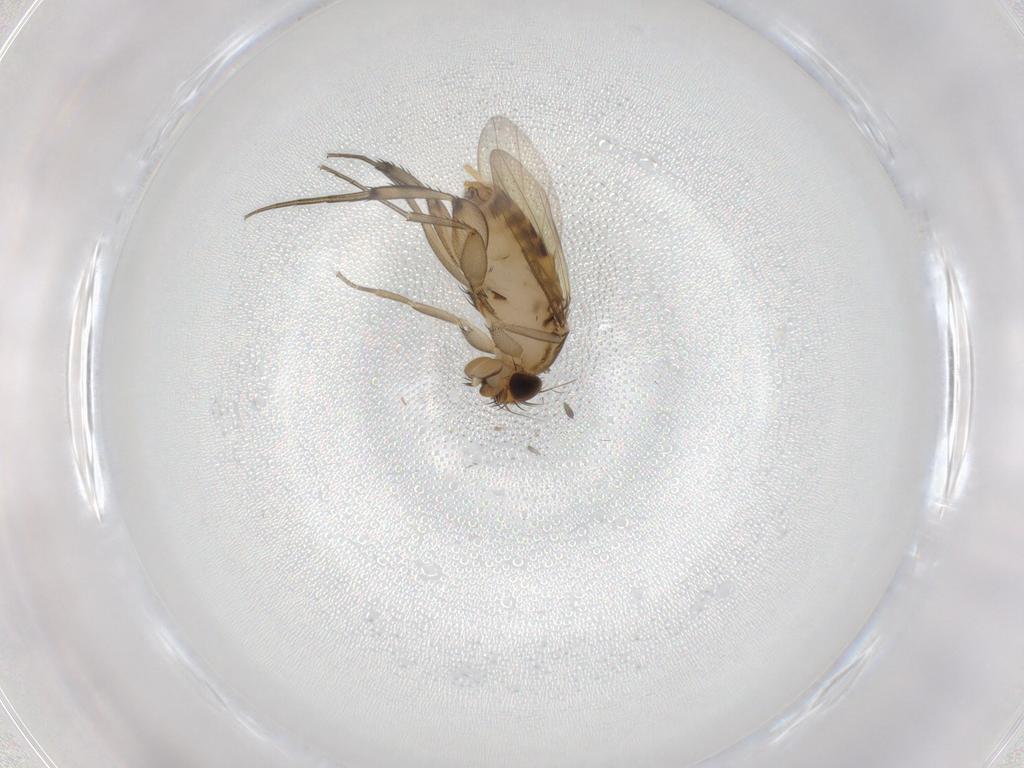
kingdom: Animalia
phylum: Arthropoda
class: Insecta
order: Diptera
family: Phoridae
